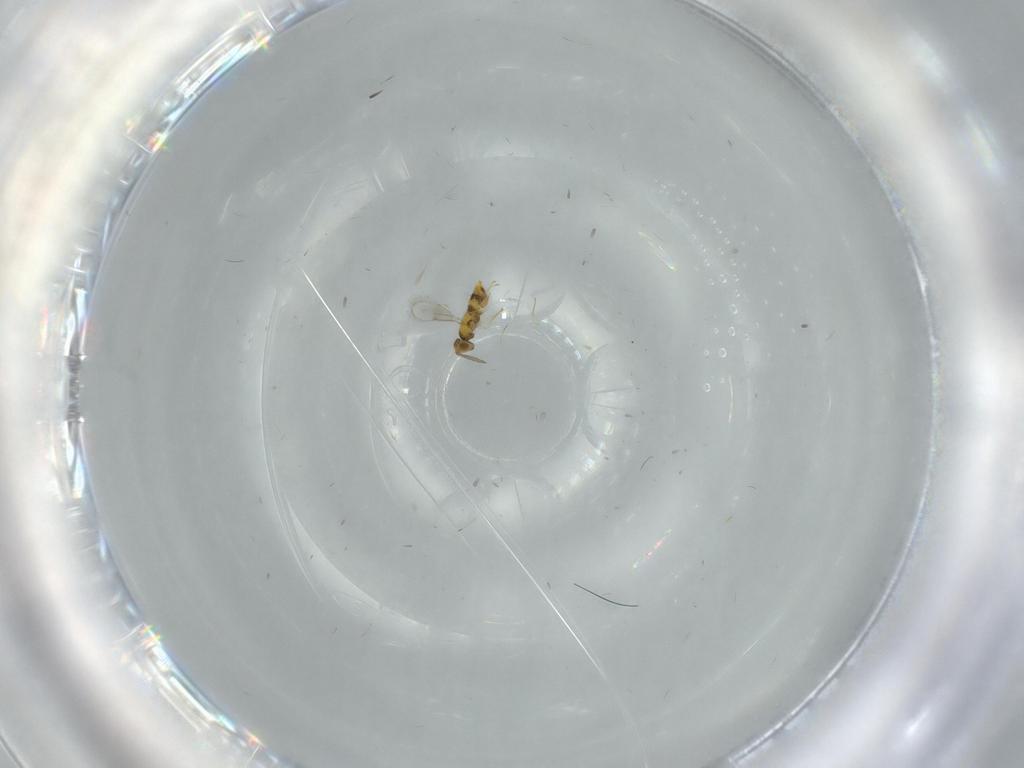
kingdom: Animalia
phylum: Arthropoda
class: Insecta
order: Hymenoptera
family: Aphelinidae
